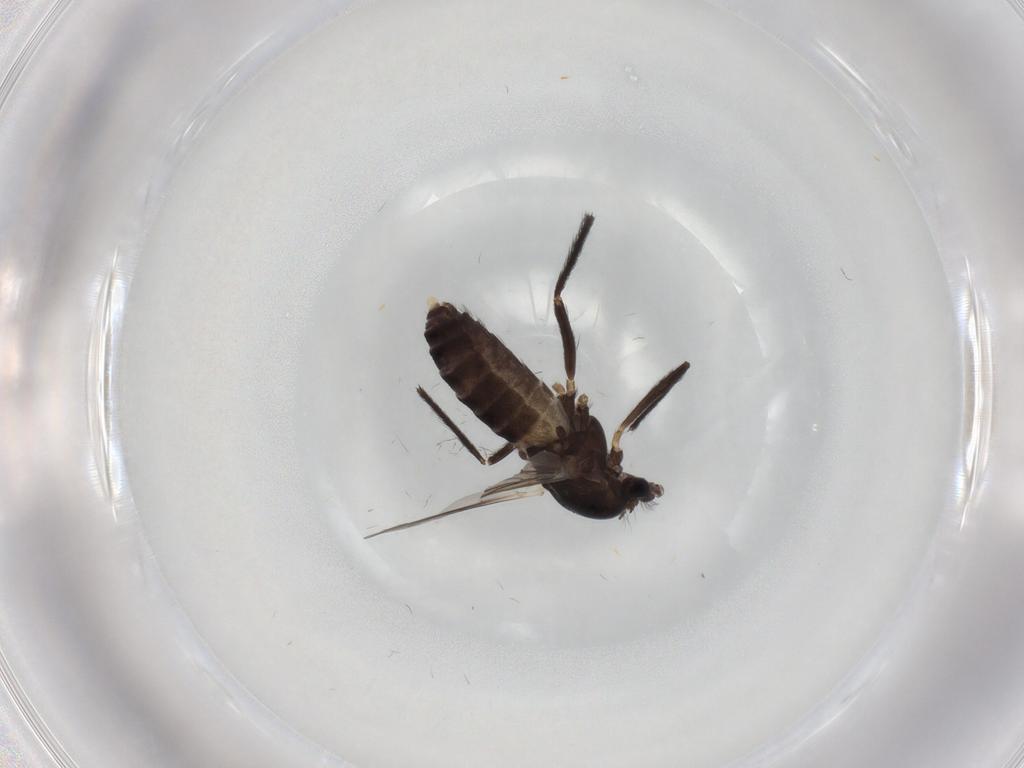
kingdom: Animalia
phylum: Arthropoda
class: Insecta
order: Diptera
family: Chironomidae
